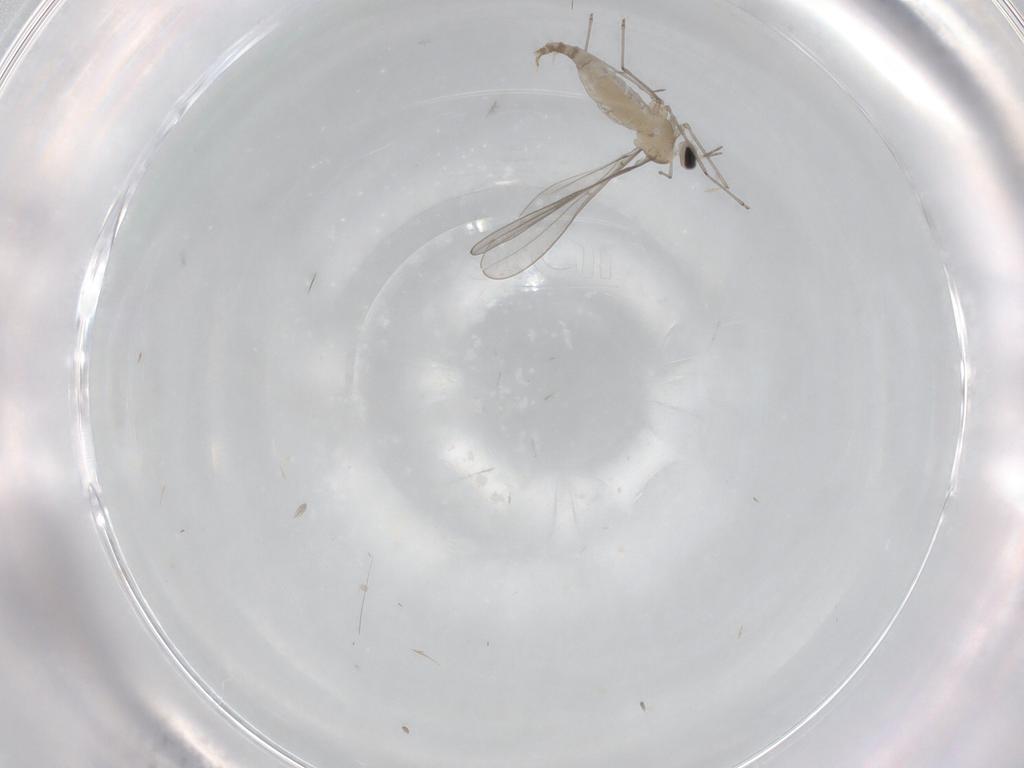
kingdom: Animalia
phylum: Arthropoda
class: Insecta
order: Diptera
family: Cecidomyiidae
